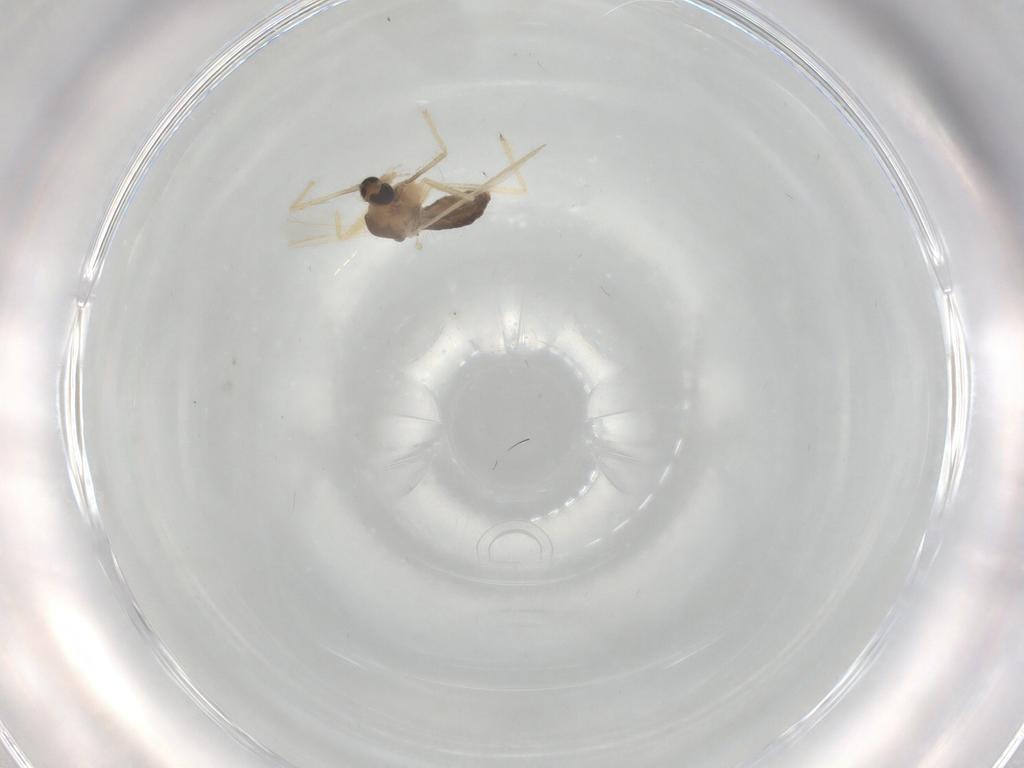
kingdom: Animalia
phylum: Arthropoda
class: Insecta
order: Diptera
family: Chironomidae
